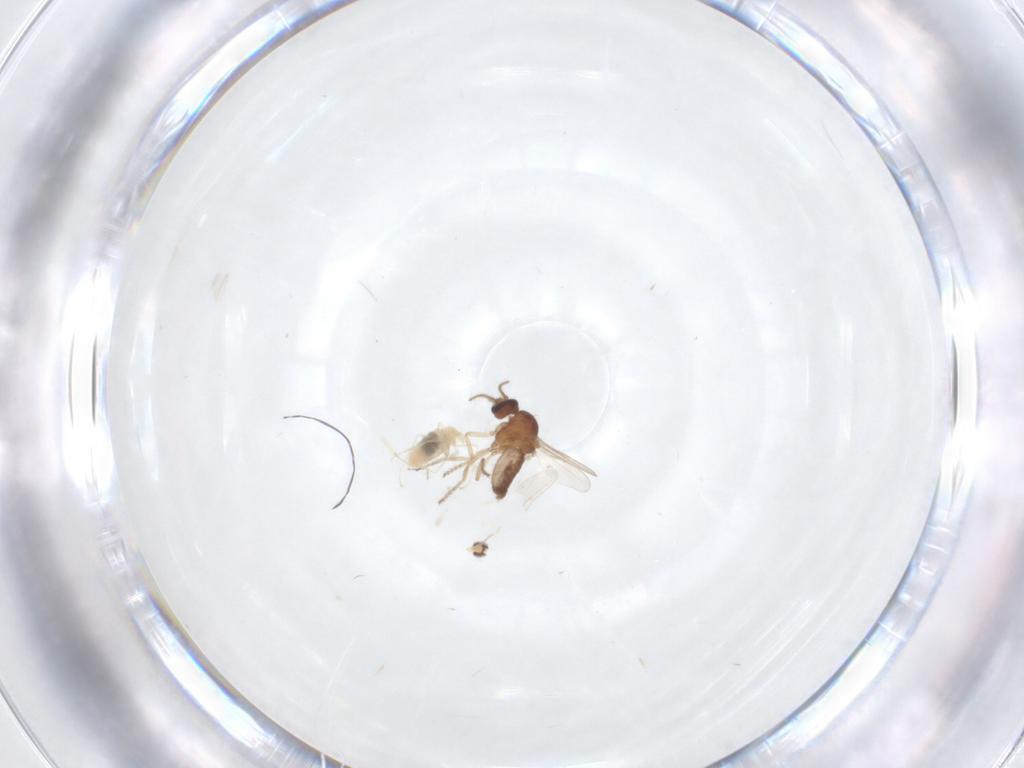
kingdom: Animalia
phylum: Arthropoda
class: Insecta
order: Diptera
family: Ceratopogonidae
